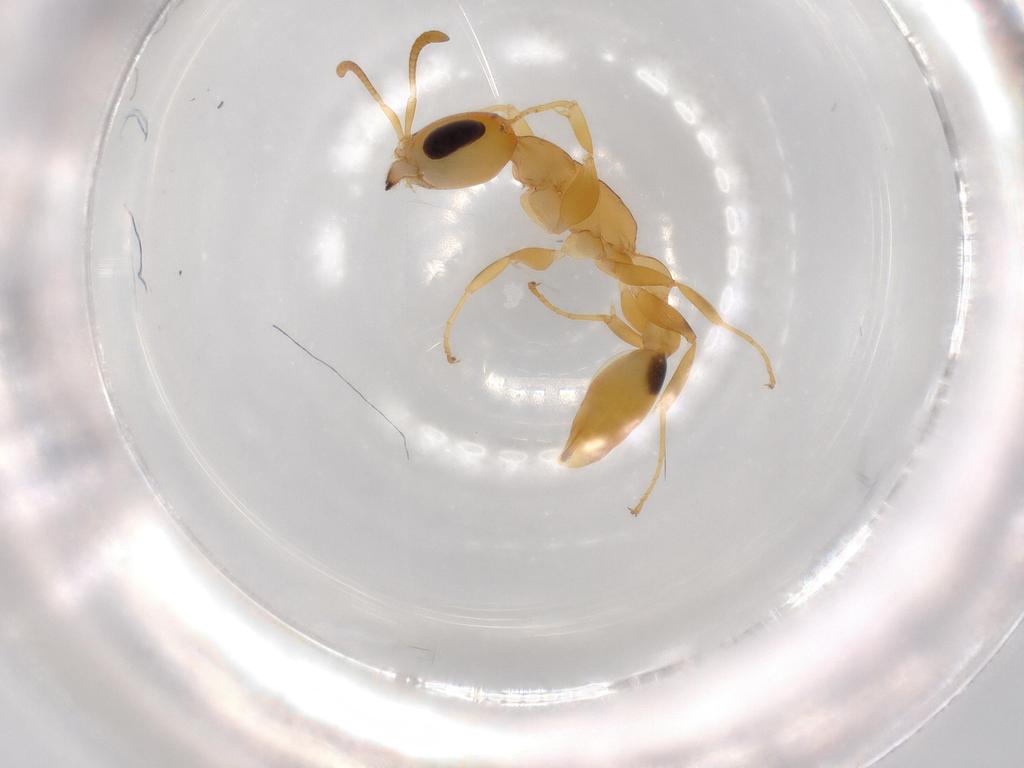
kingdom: Animalia
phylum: Arthropoda
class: Insecta
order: Hymenoptera
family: Formicidae
